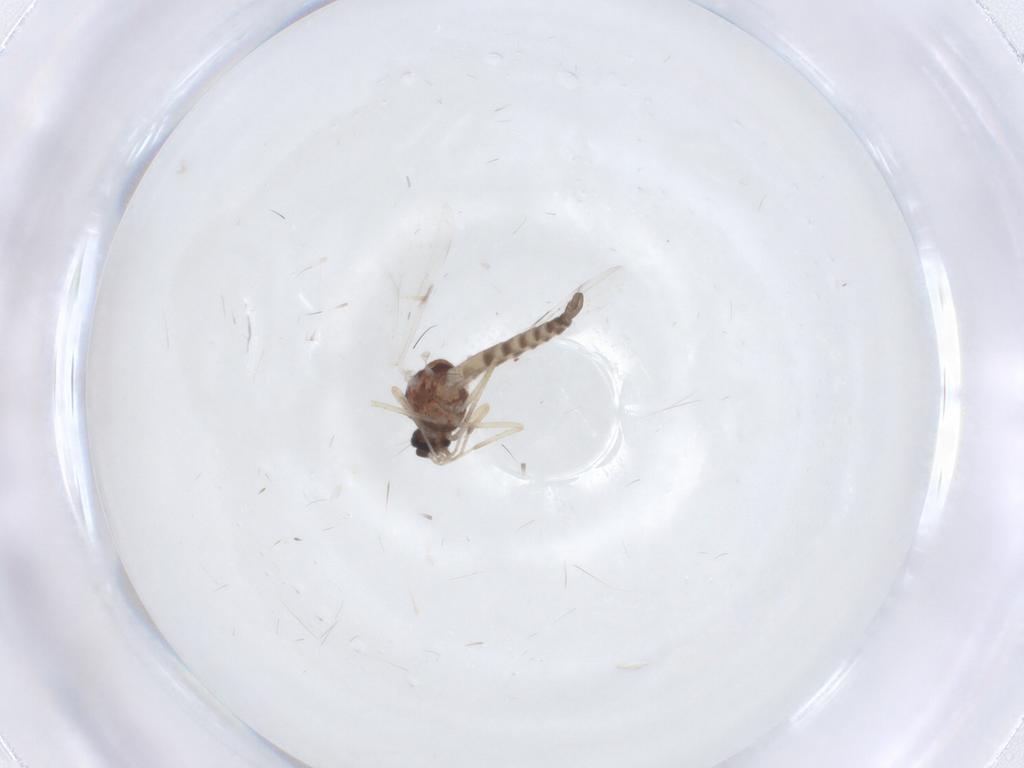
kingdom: Animalia
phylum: Arthropoda
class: Insecta
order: Diptera
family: Ceratopogonidae
